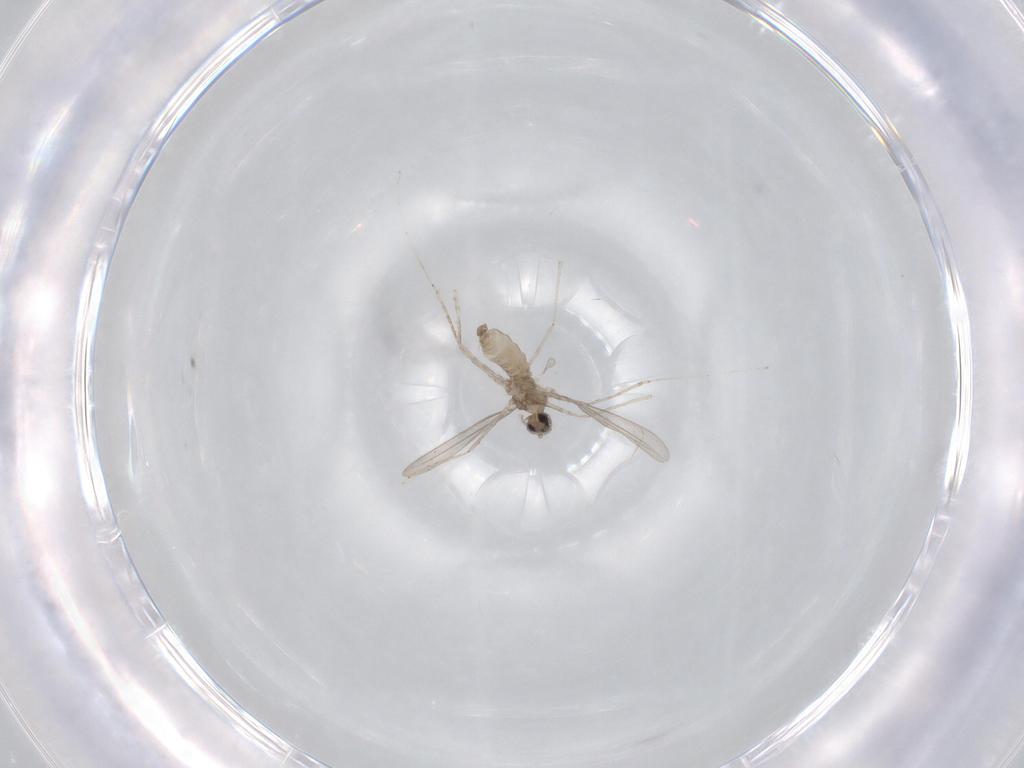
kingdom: Animalia
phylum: Arthropoda
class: Insecta
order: Diptera
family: Cecidomyiidae
